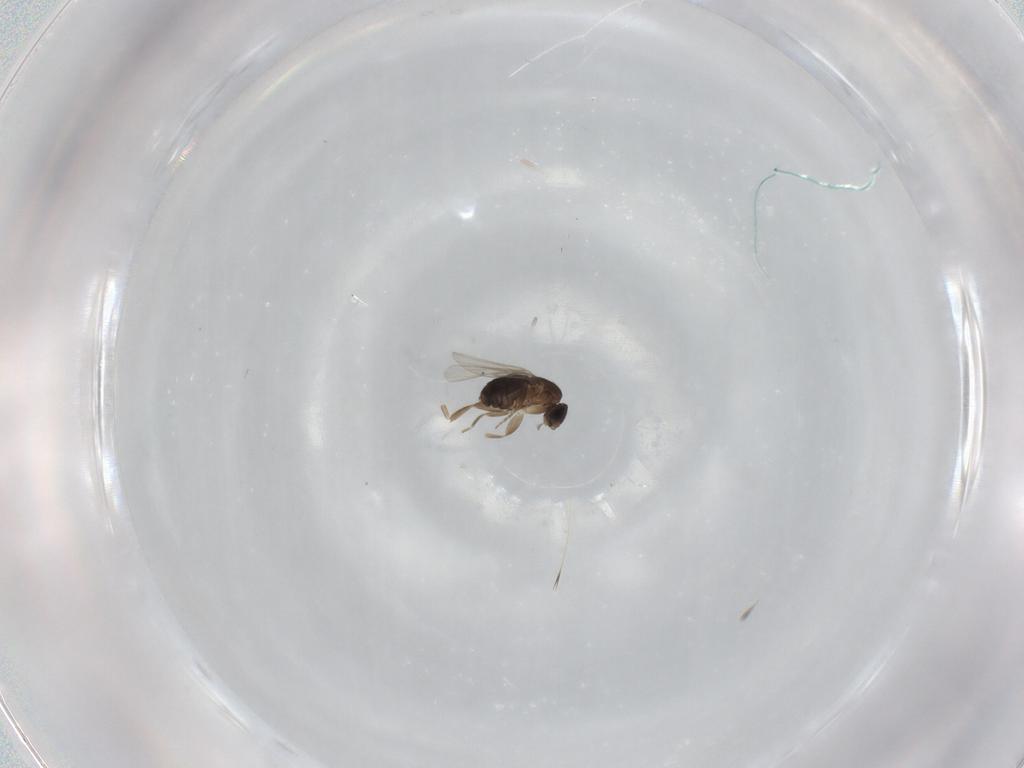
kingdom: Animalia
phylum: Arthropoda
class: Insecta
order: Diptera
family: Phoridae
